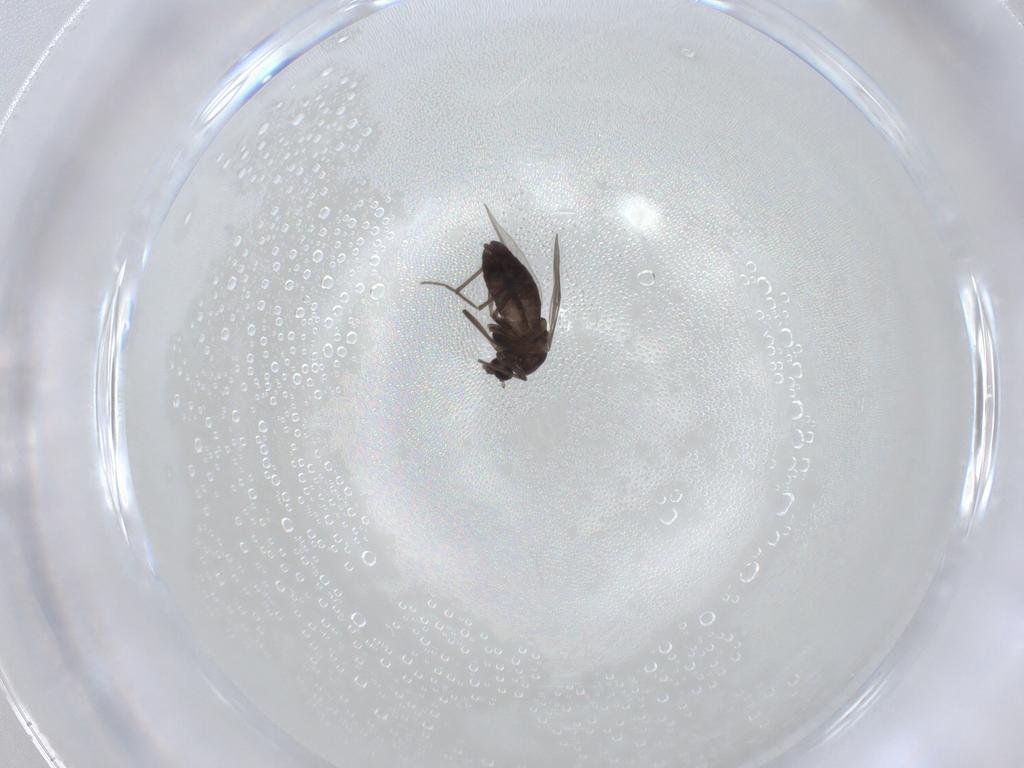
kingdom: Animalia
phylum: Arthropoda
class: Insecta
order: Diptera
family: Chironomidae
